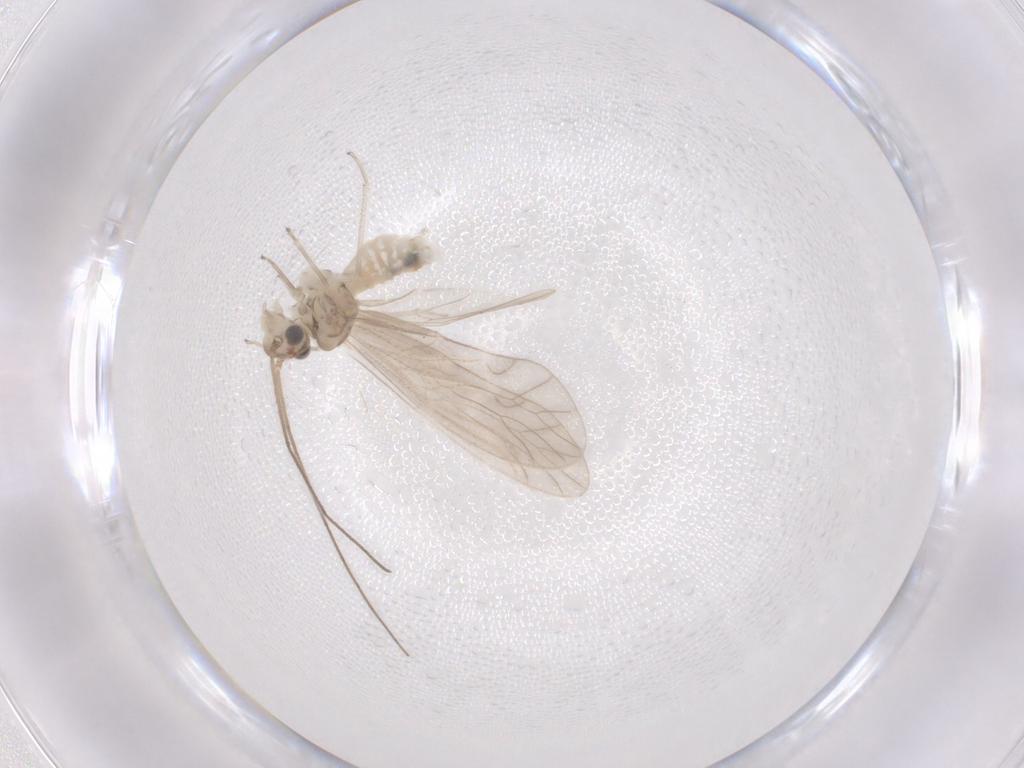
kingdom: Animalia
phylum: Arthropoda
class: Insecta
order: Psocodea
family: Caeciliusidae
